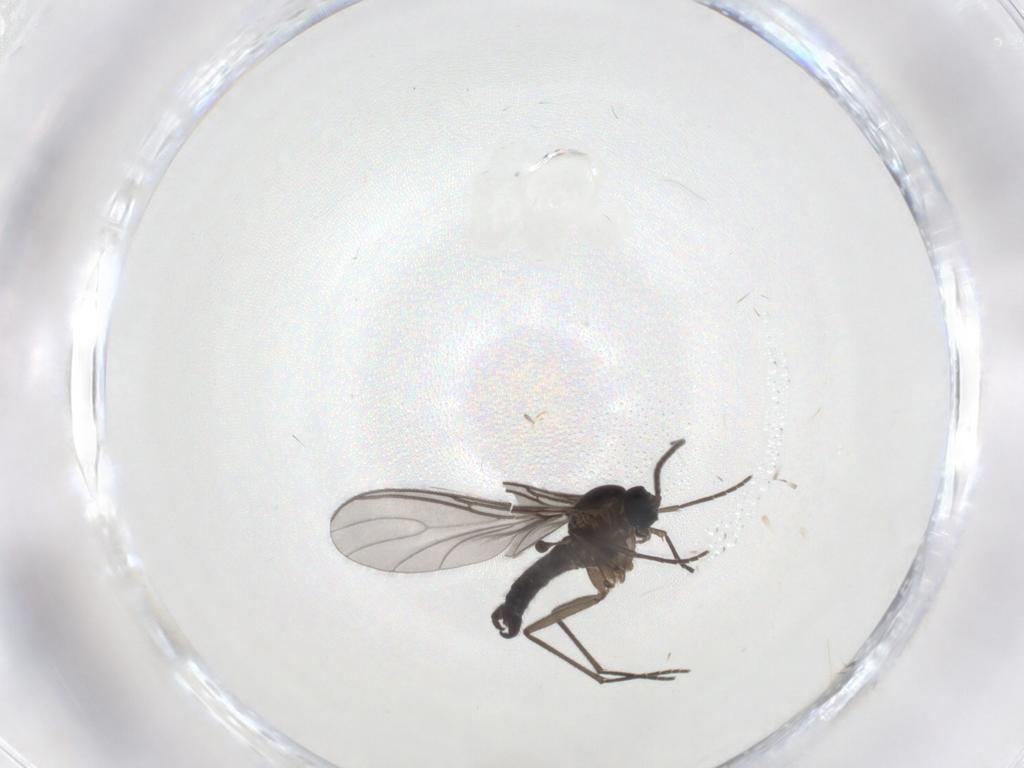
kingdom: Animalia
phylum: Arthropoda
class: Insecta
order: Diptera
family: Sciaridae
